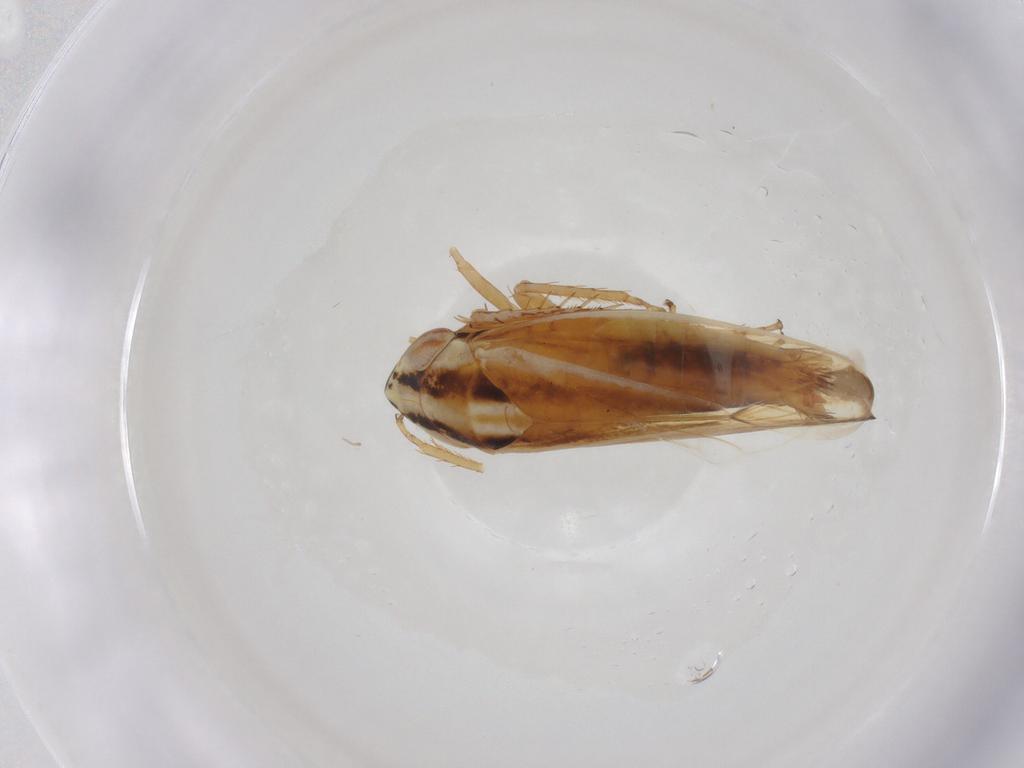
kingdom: Animalia
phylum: Arthropoda
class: Insecta
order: Hemiptera
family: Cicadellidae
